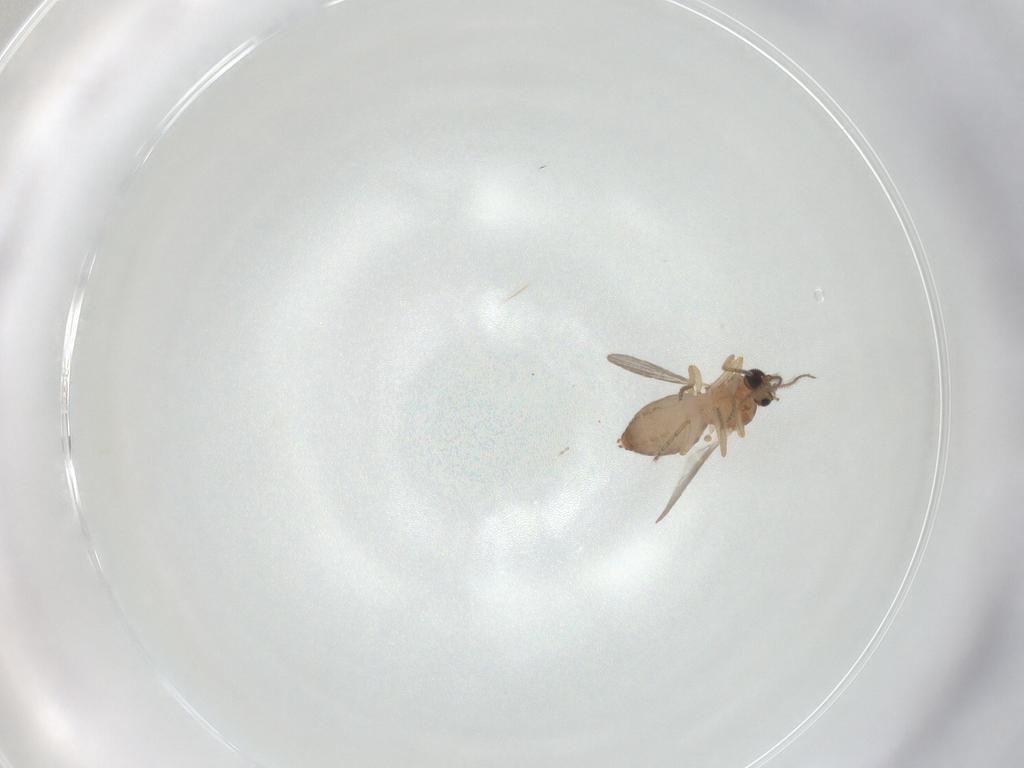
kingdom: Animalia
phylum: Arthropoda
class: Insecta
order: Diptera
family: Ceratopogonidae
